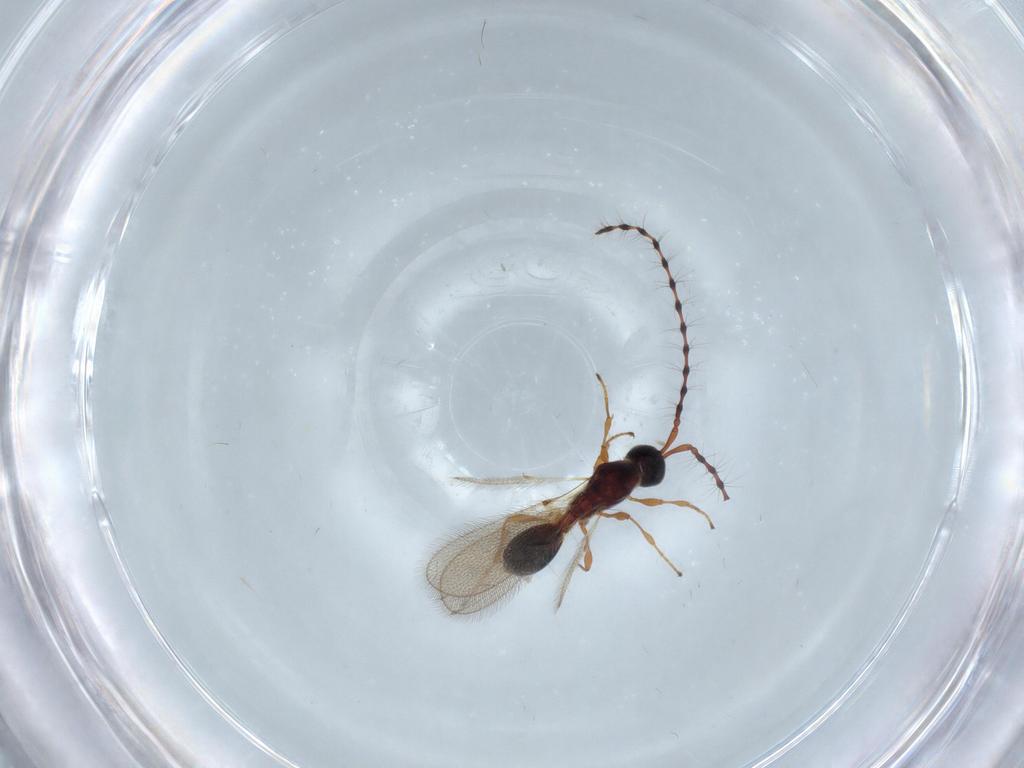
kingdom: Animalia
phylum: Arthropoda
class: Insecta
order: Hymenoptera
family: Diapriidae
